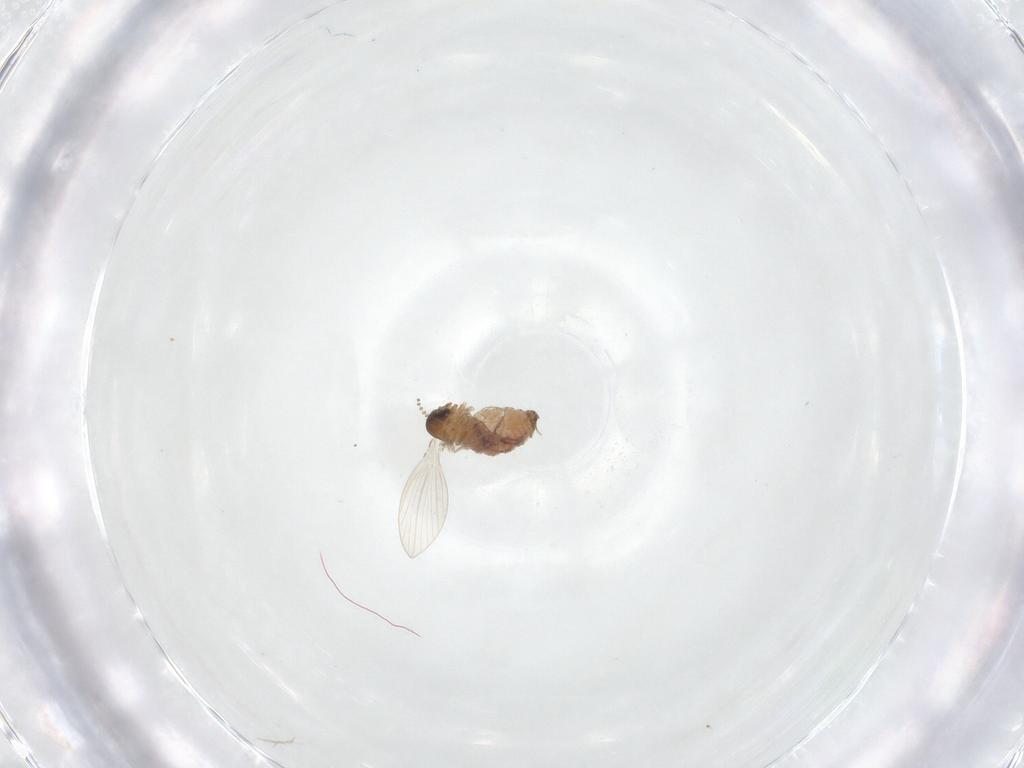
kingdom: Animalia
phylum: Arthropoda
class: Insecta
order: Diptera
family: Psychodidae
